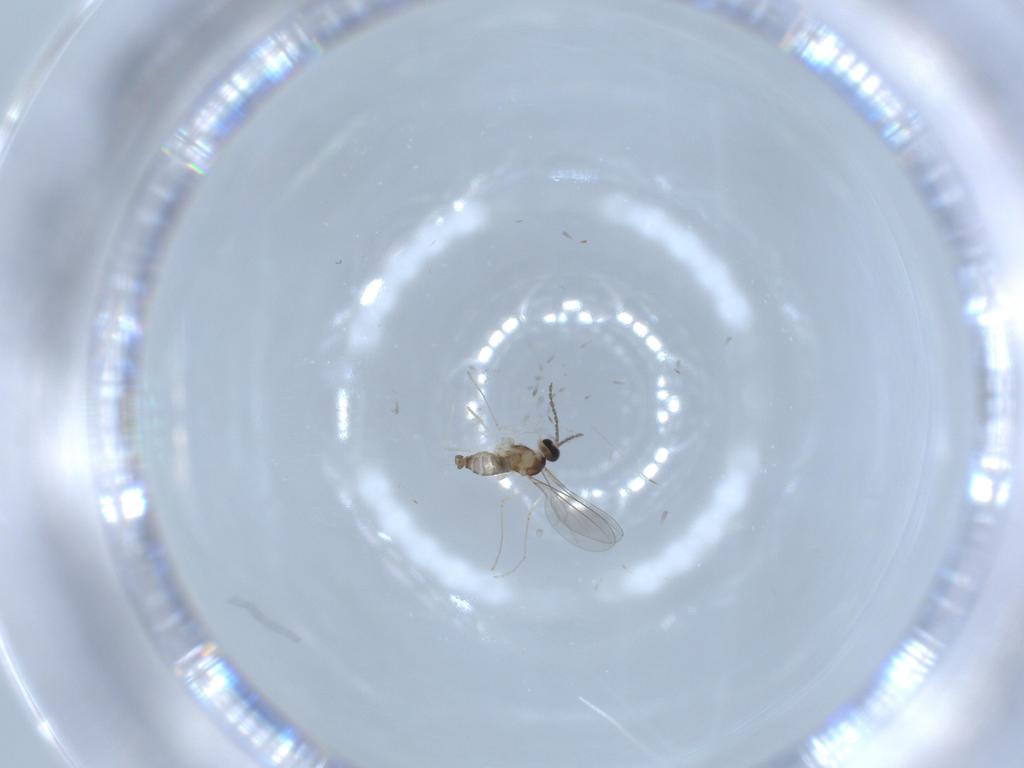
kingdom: Animalia
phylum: Arthropoda
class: Insecta
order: Diptera
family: Cecidomyiidae
